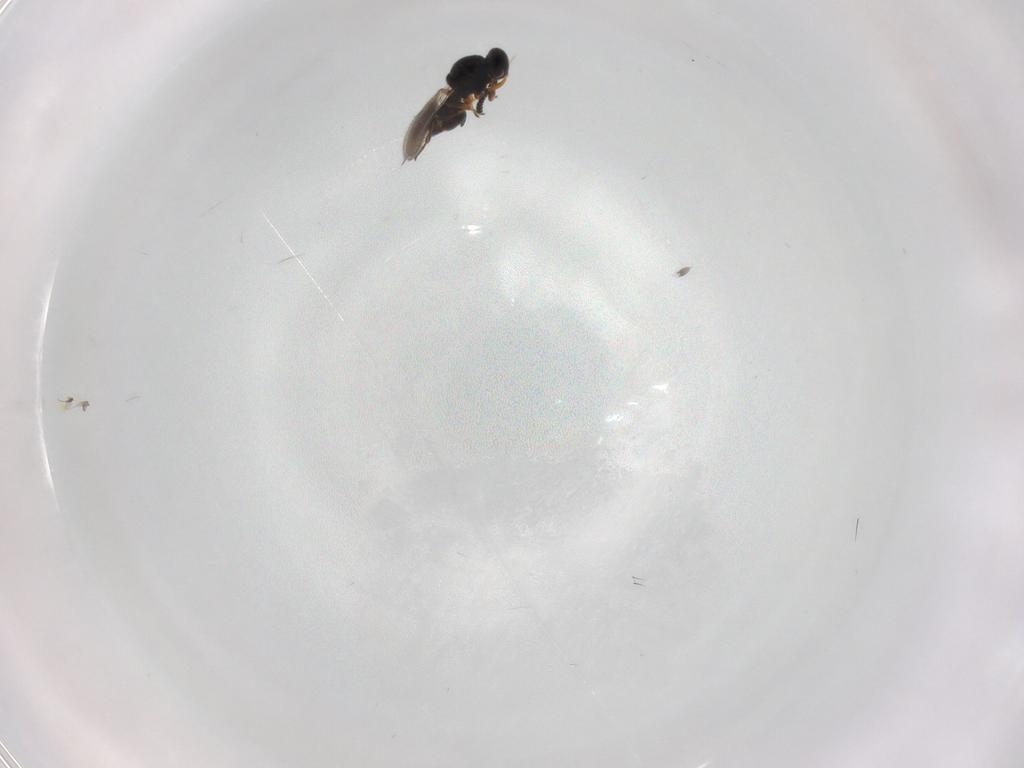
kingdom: Animalia
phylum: Arthropoda
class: Insecta
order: Hymenoptera
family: Platygastridae
